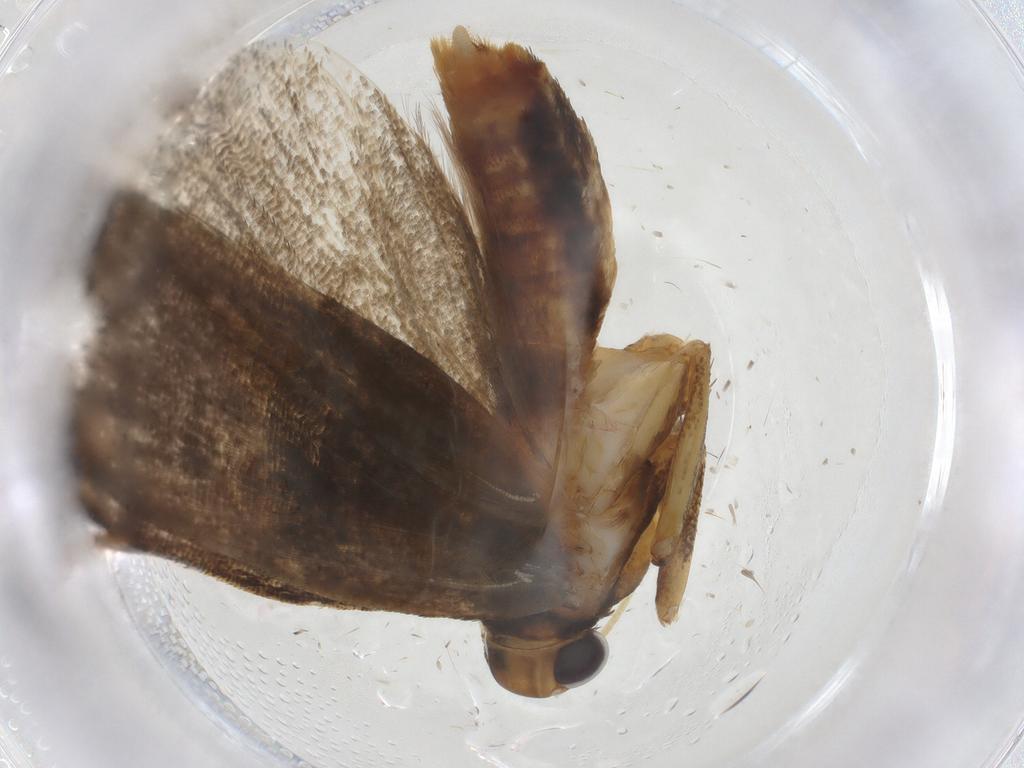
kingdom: Animalia
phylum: Arthropoda
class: Insecta
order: Lepidoptera
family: Lecithoceridae
